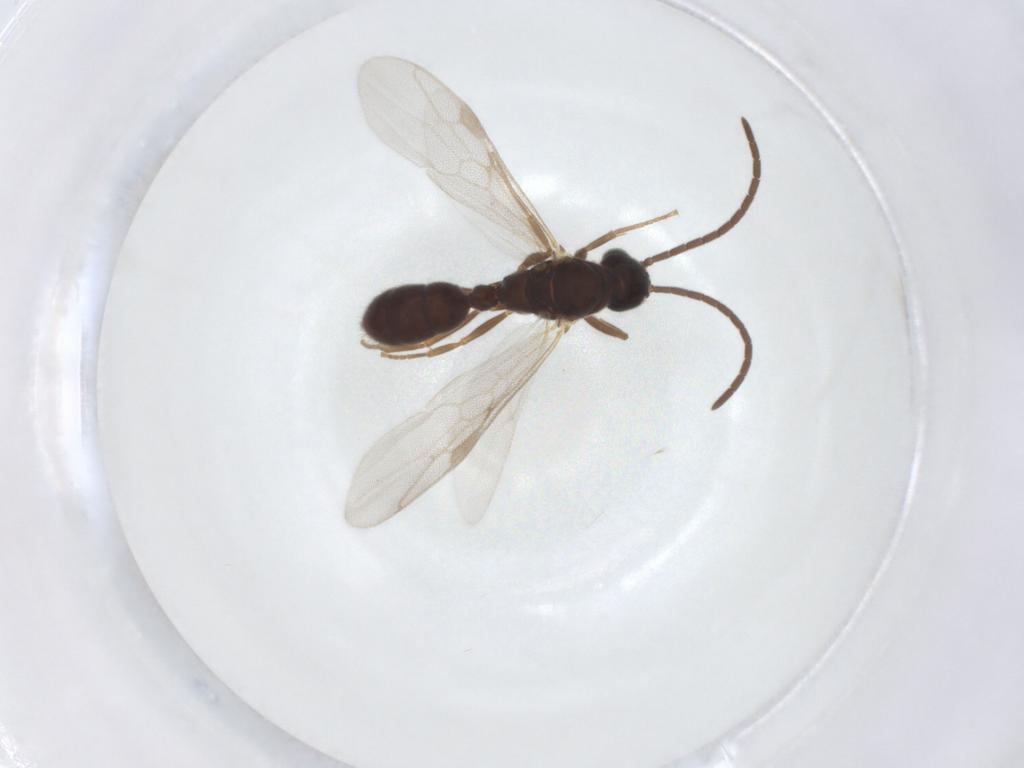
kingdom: Animalia
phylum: Arthropoda
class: Insecta
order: Hymenoptera
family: Formicidae
